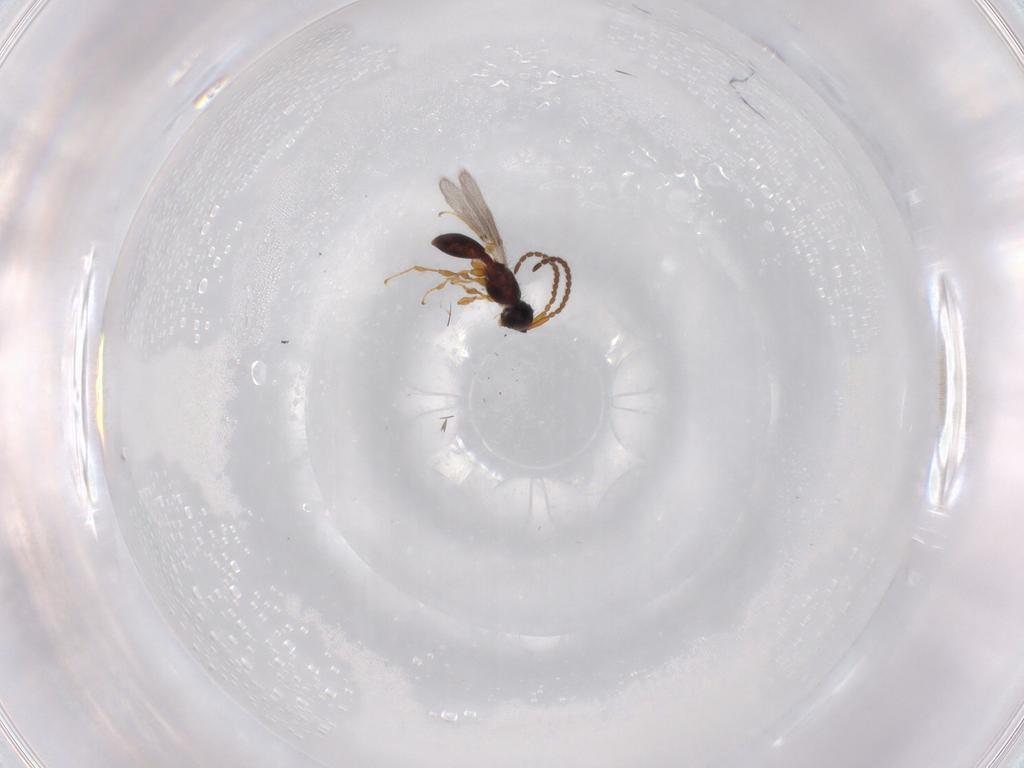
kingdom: Animalia
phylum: Arthropoda
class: Insecta
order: Hymenoptera
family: Diapriidae
